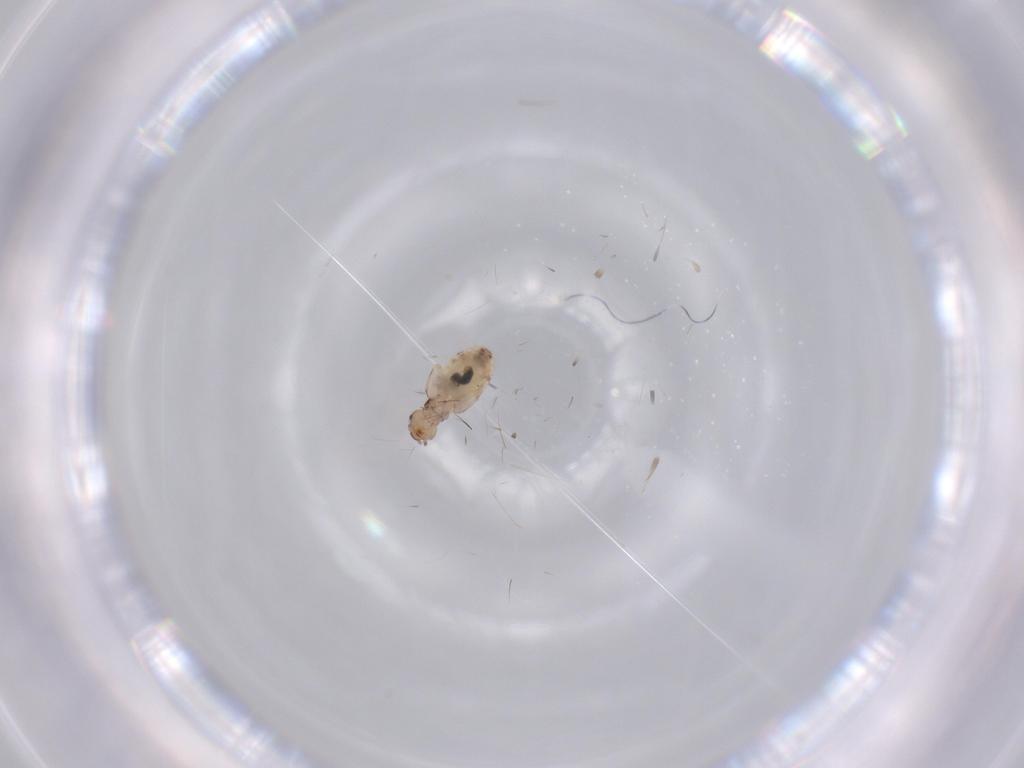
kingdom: Animalia
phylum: Arthropoda
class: Insecta
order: Psocodea
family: Liposcelididae
